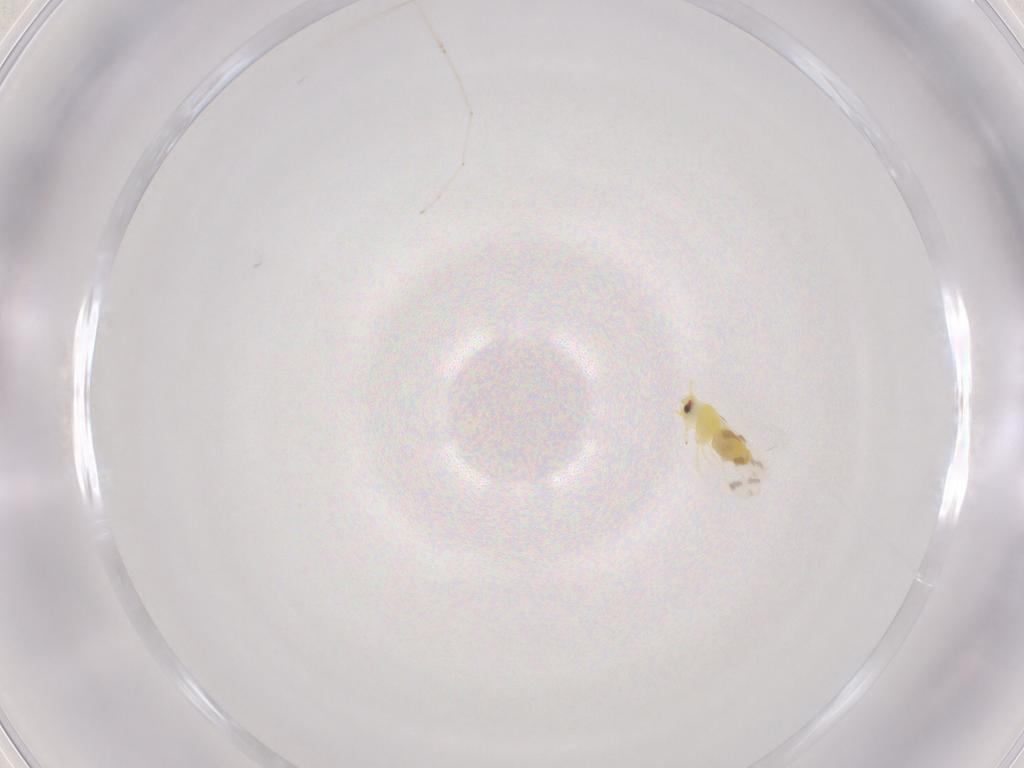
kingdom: Animalia
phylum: Arthropoda
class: Insecta
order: Hemiptera
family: Aleyrodidae
